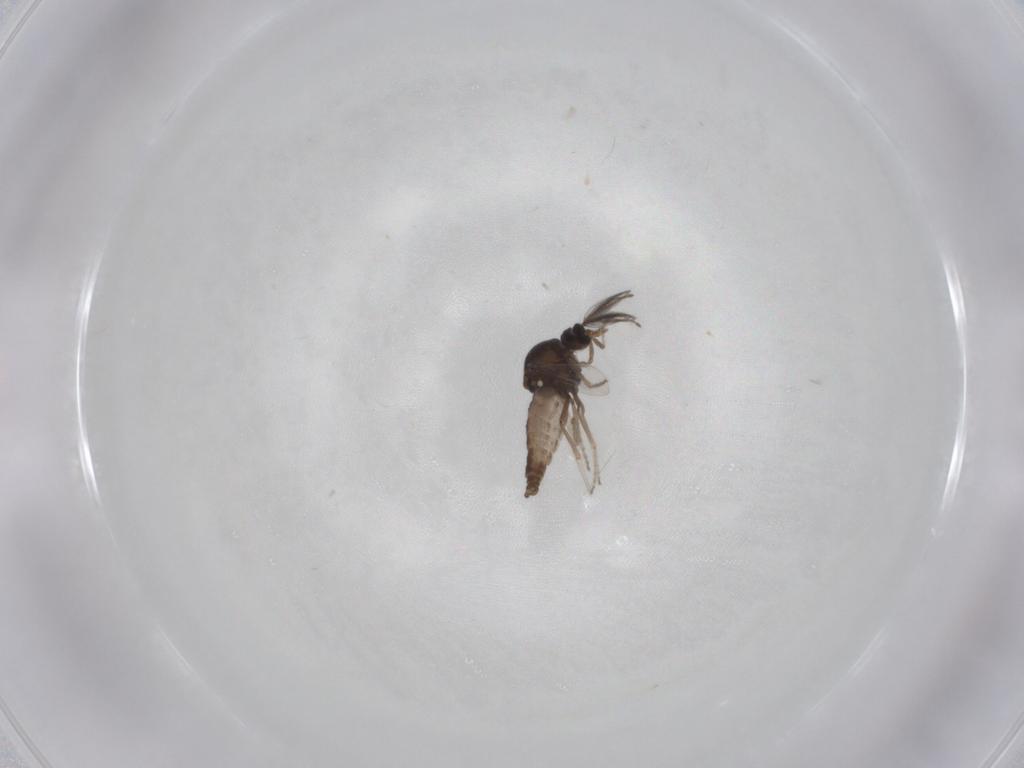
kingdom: Animalia
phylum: Arthropoda
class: Insecta
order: Diptera
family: Ceratopogonidae
